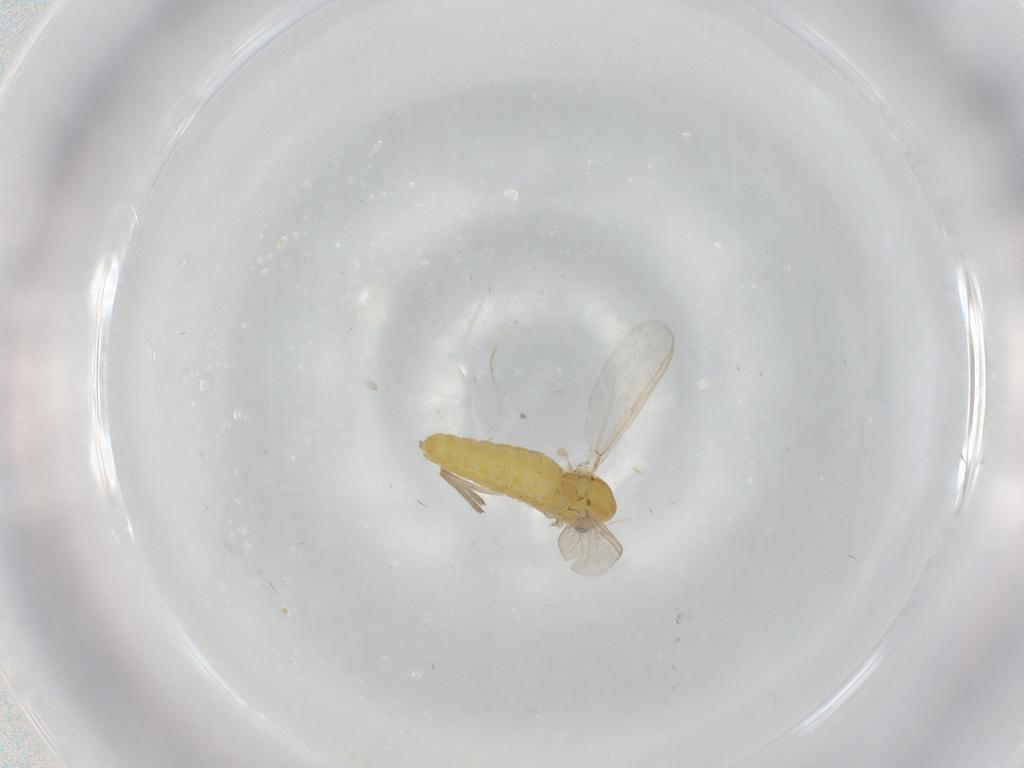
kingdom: Animalia
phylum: Arthropoda
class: Insecta
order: Diptera
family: Chironomidae
